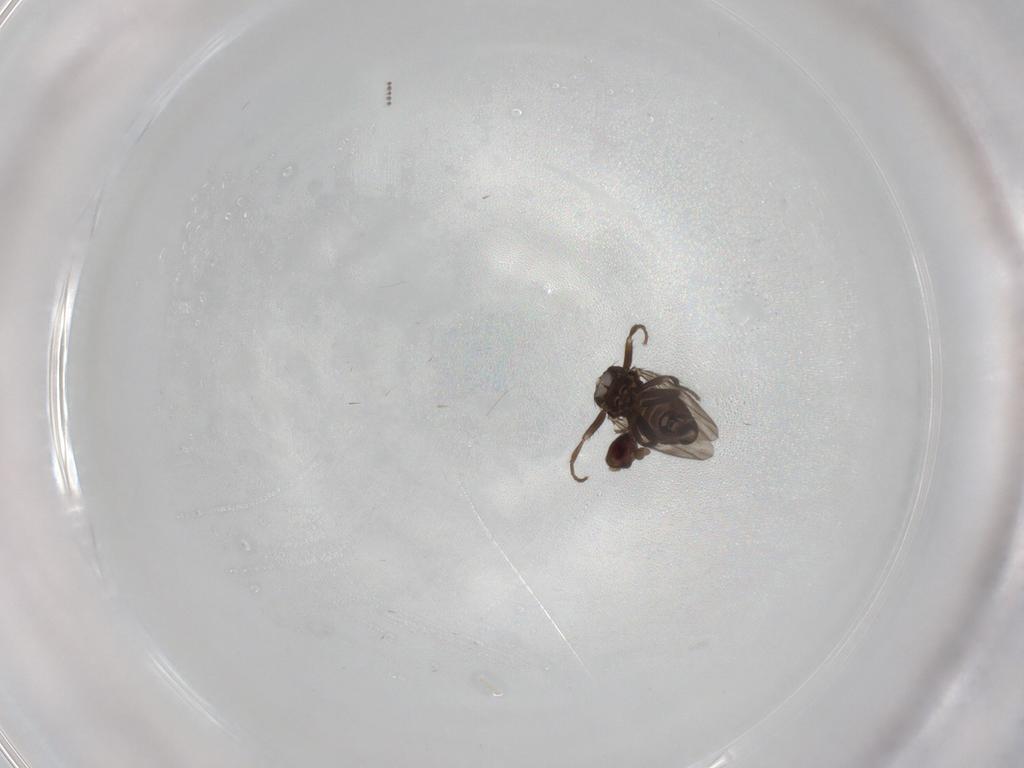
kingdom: Animalia
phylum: Arthropoda
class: Insecta
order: Diptera
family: Sphaeroceridae
